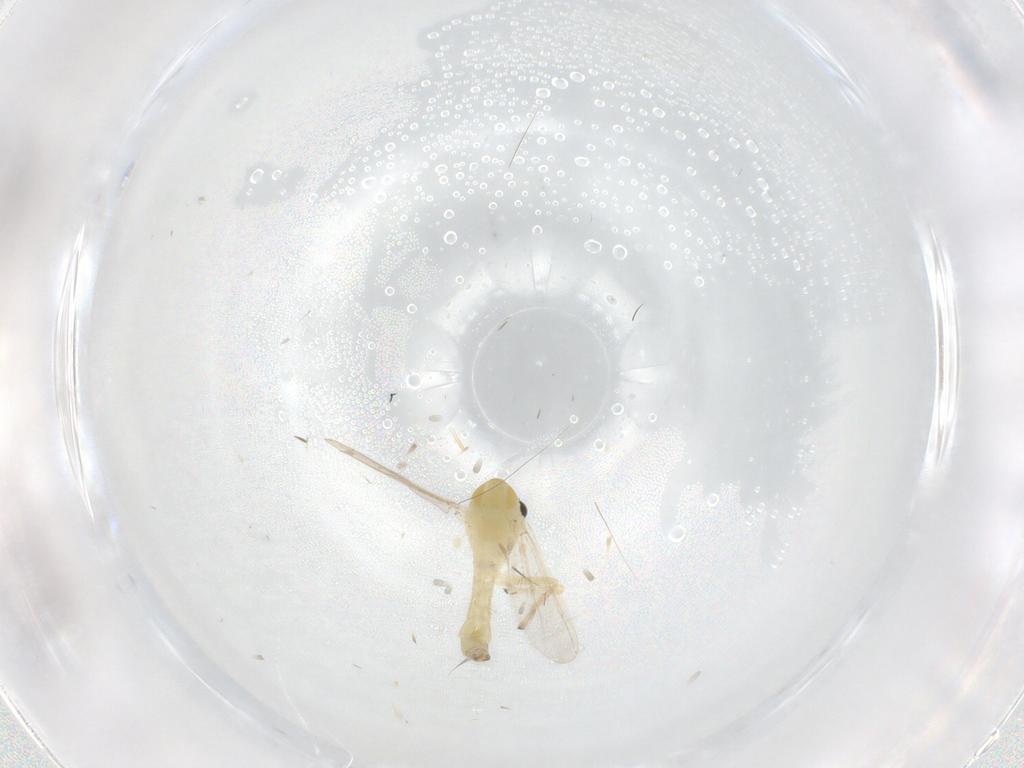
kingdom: Animalia
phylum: Arthropoda
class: Insecta
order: Diptera
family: Chironomidae
